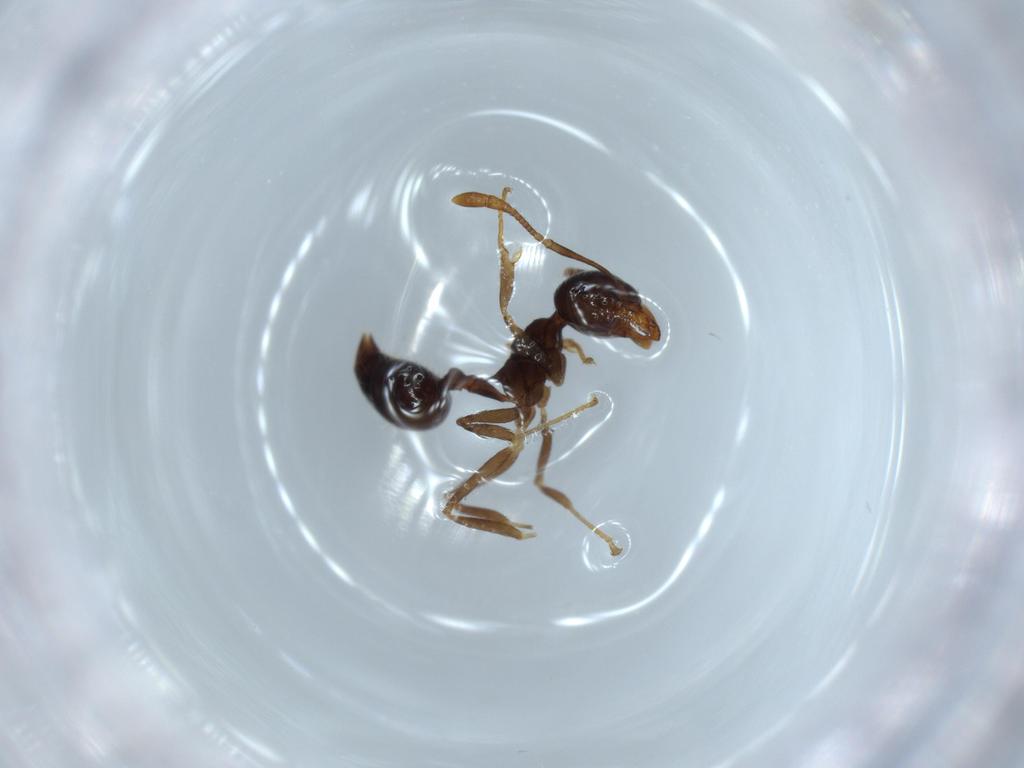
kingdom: Animalia
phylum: Arthropoda
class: Insecta
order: Hymenoptera
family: Formicidae
